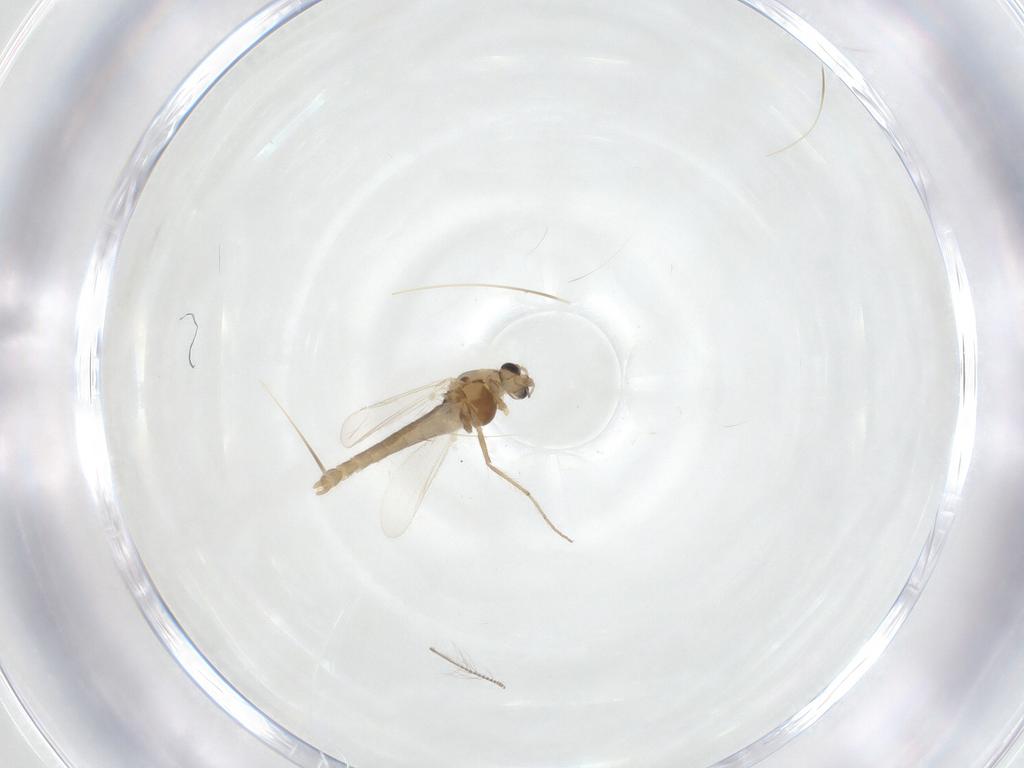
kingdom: Animalia
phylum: Arthropoda
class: Insecta
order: Diptera
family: Chironomidae
